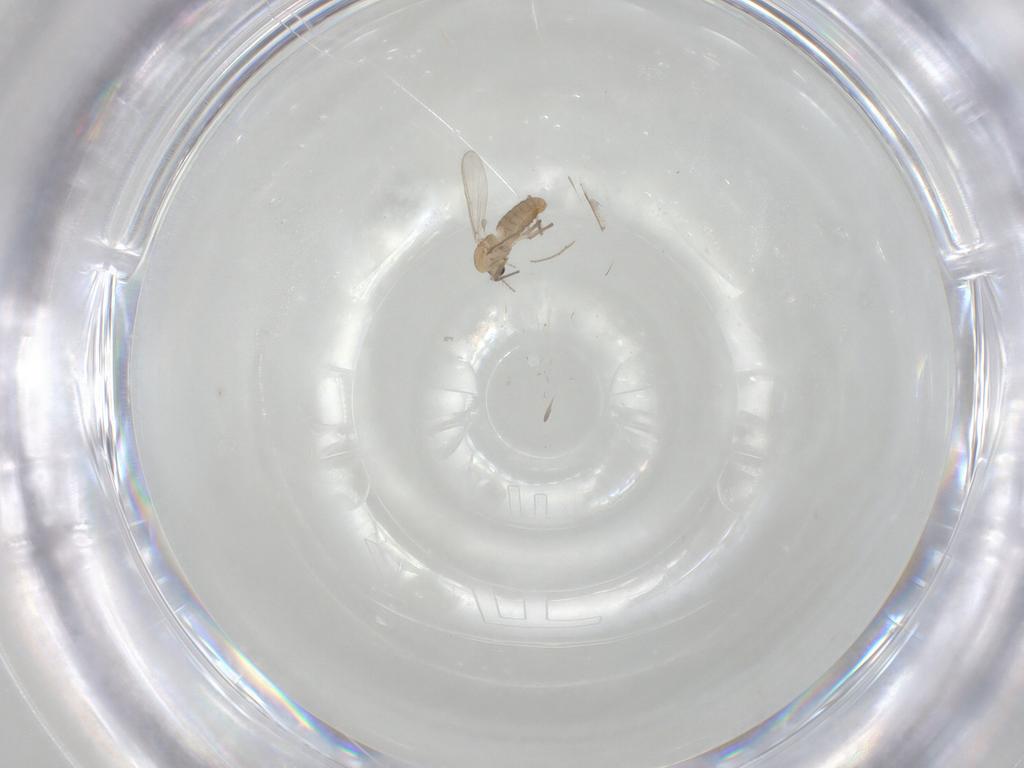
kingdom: Animalia
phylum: Arthropoda
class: Insecta
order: Diptera
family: Chironomidae
